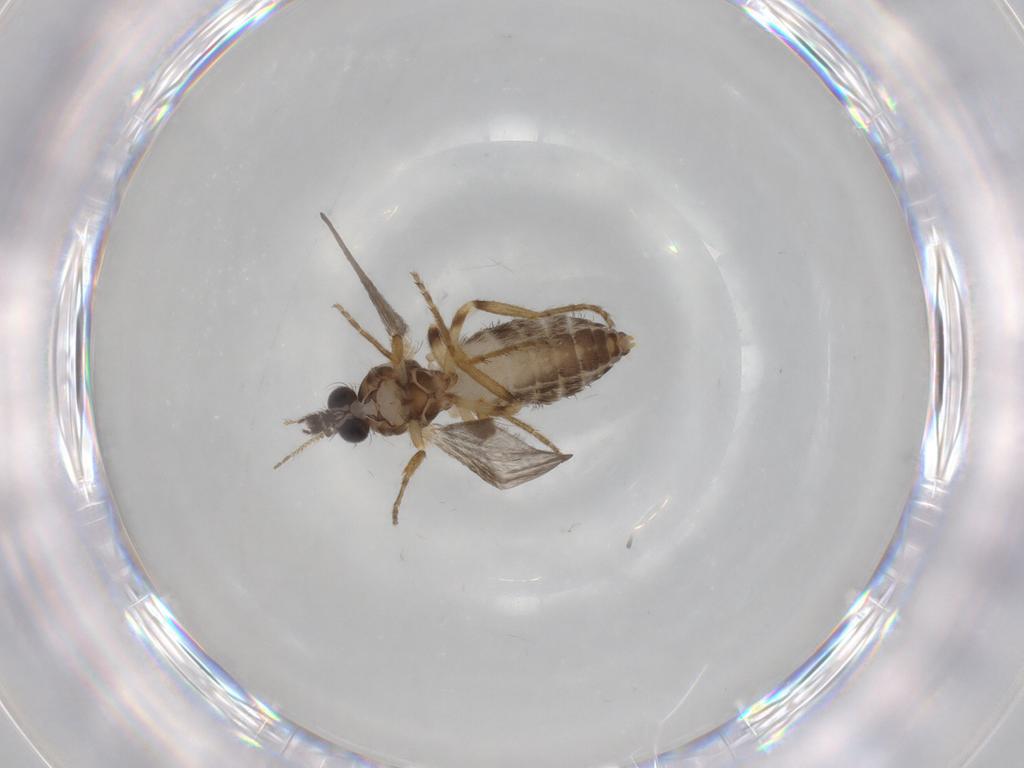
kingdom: Animalia
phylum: Arthropoda
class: Insecta
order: Diptera
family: Ceratopogonidae
